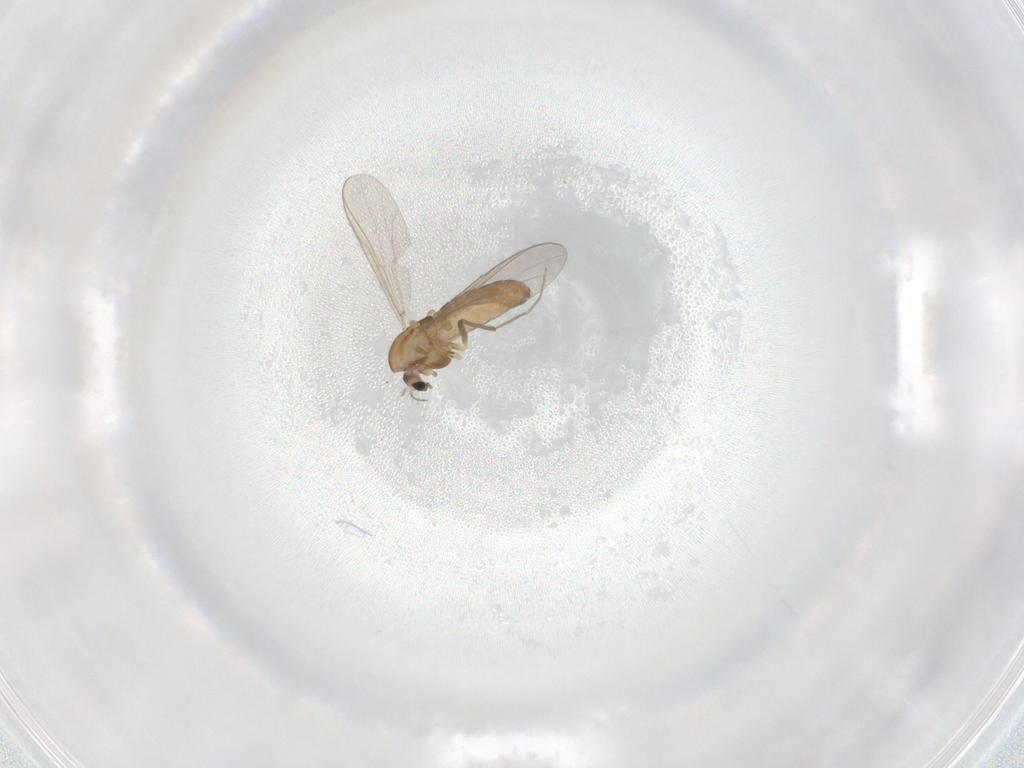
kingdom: Animalia
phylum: Arthropoda
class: Insecta
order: Diptera
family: Chironomidae
